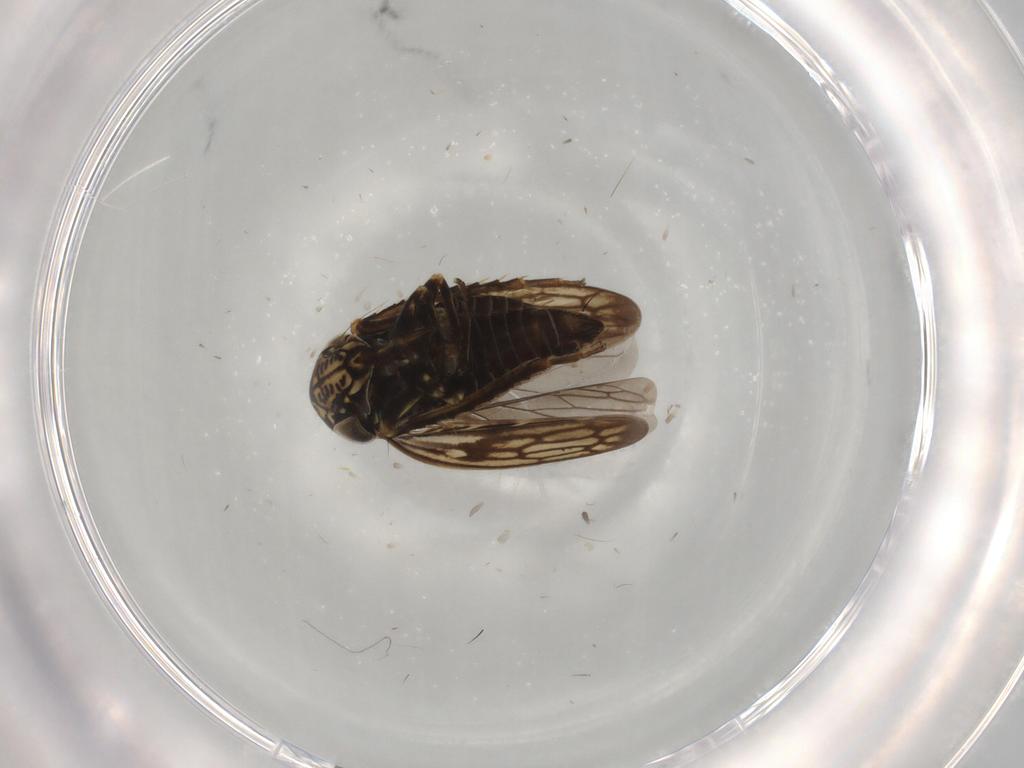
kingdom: Animalia
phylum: Arthropoda
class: Insecta
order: Hemiptera
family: Cicadellidae
